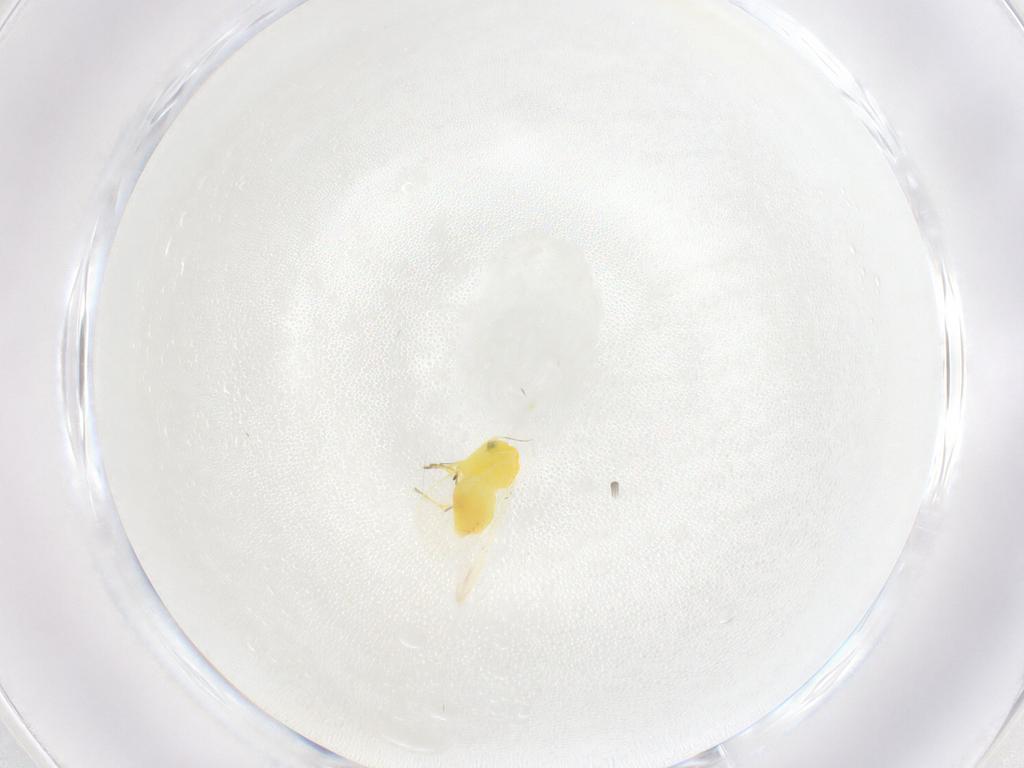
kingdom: Animalia
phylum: Arthropoda
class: Insecta
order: Hemiptera
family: Aleyrodidae
